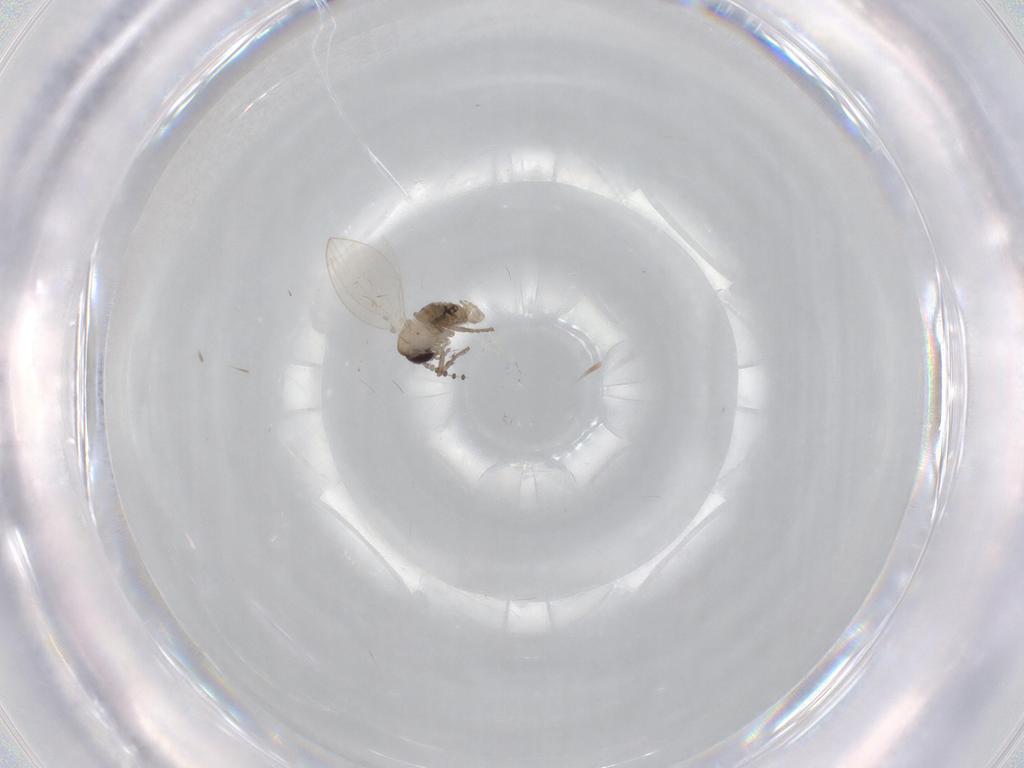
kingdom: Animalia
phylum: Arthropoda
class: Insecta
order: Diptera
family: Psychodidae
